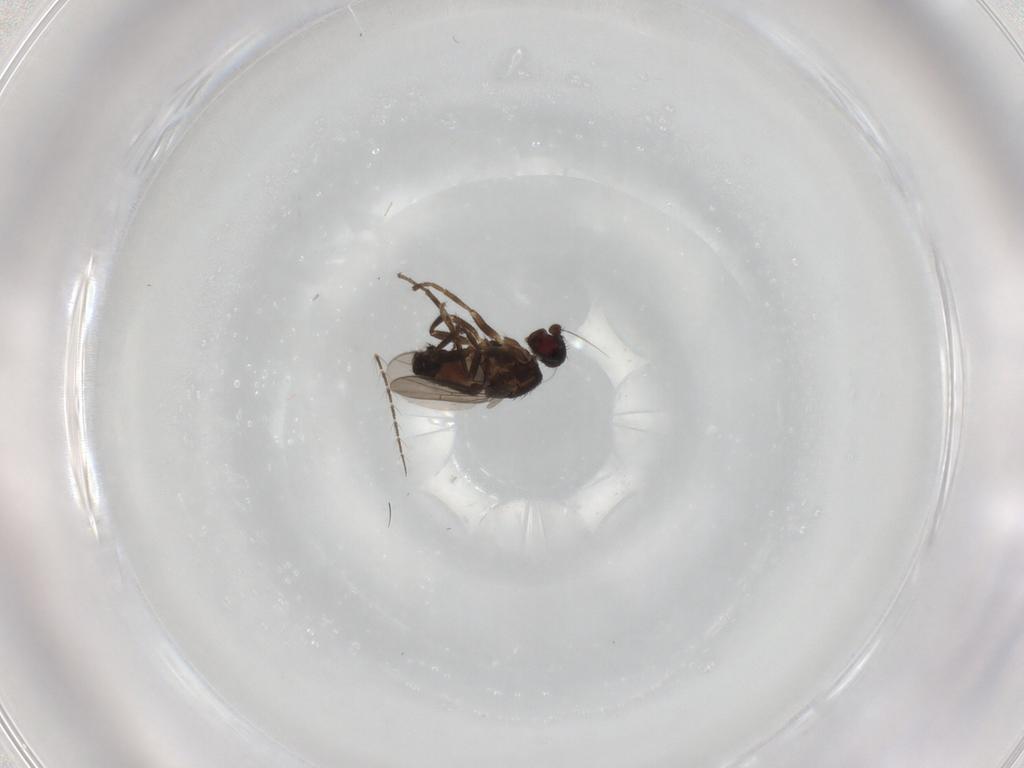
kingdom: Animalia
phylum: Arthropoda
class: Insecta
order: Diptera
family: Sphaeroceridae
